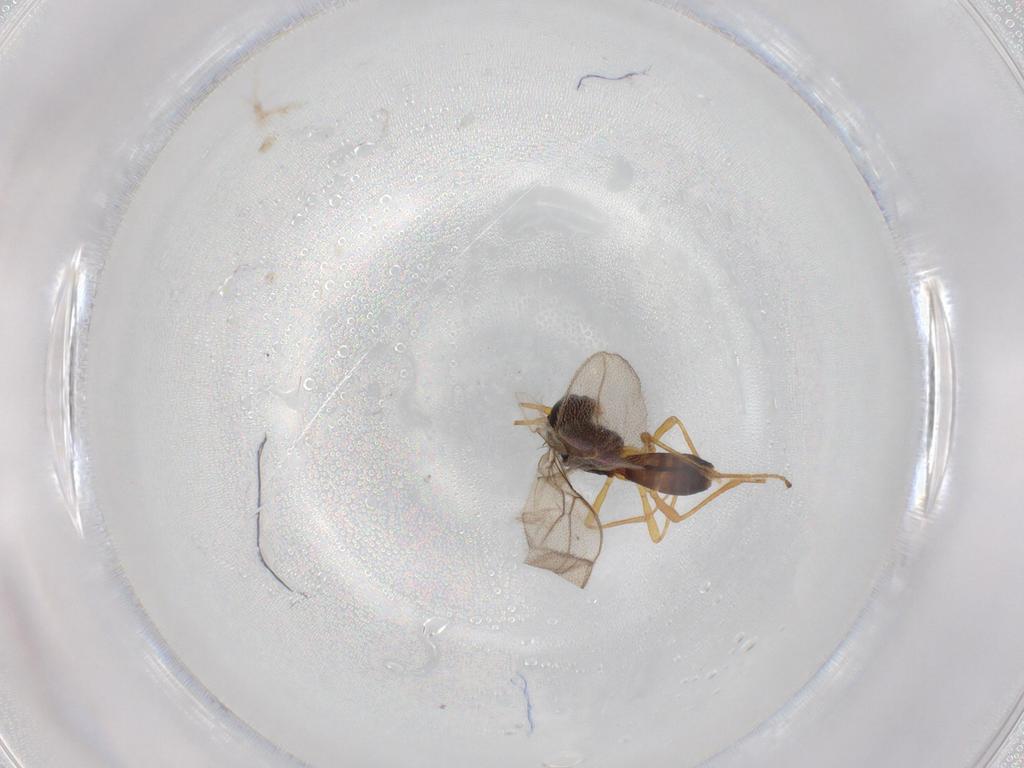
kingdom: Animalia
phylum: Arthropoda
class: Insecta
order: Hymenoptera
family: Braconidae
